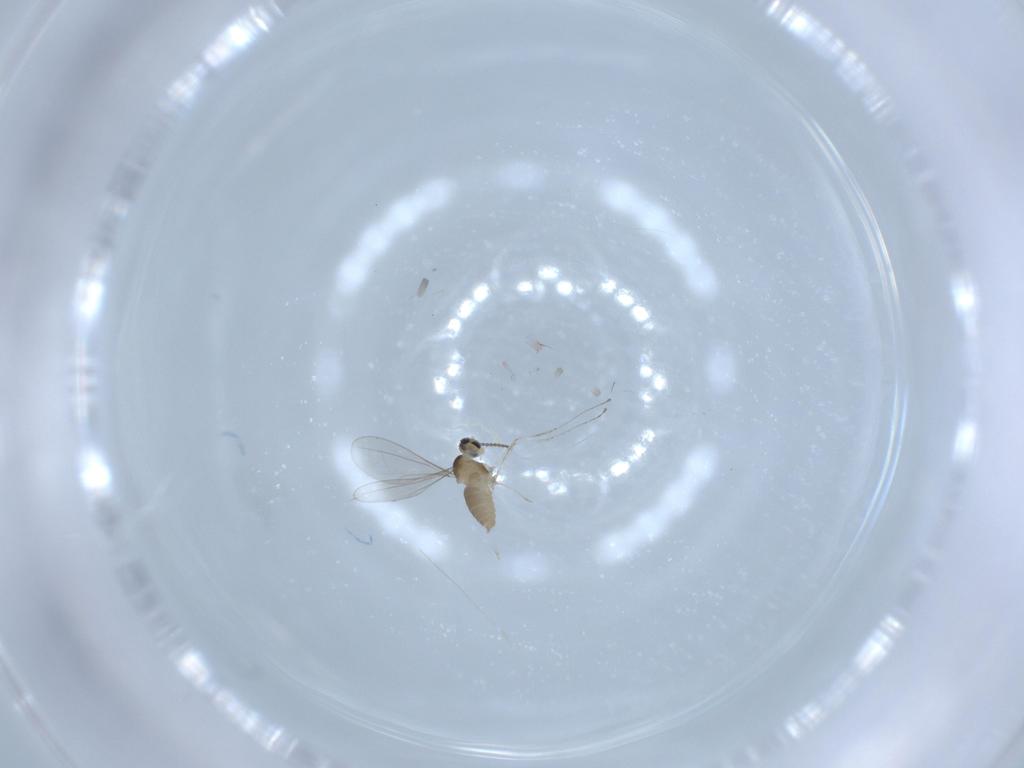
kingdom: Animalia
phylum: Arthropoda
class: Insecta
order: Diptera
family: Cecidomyiidae
